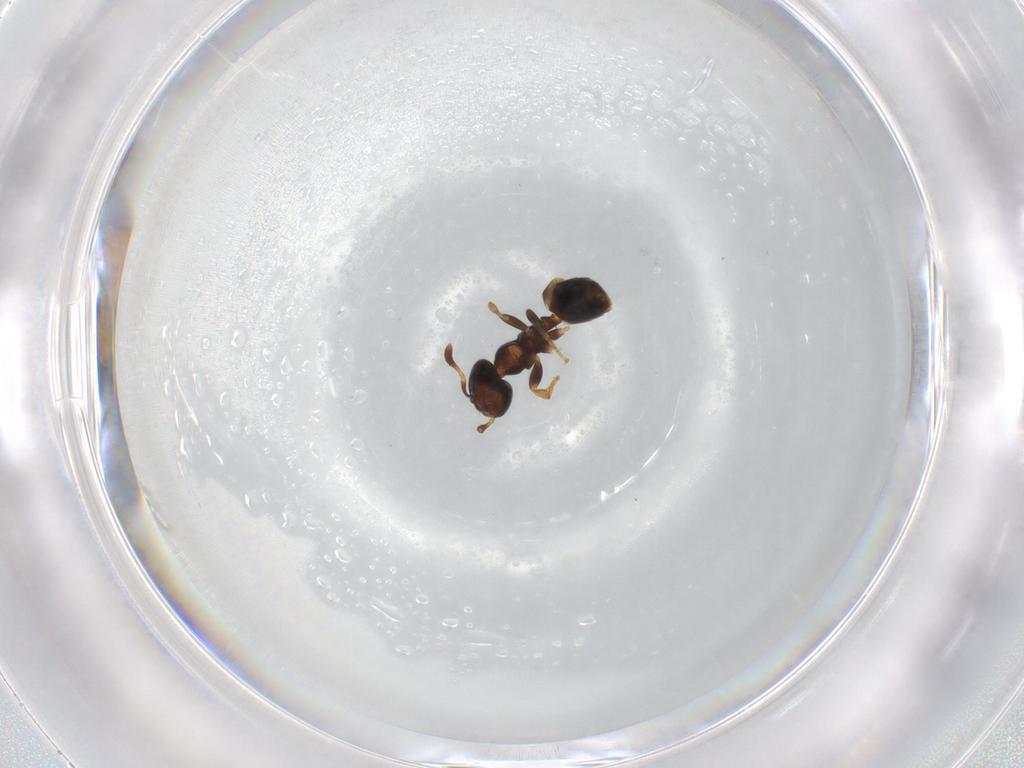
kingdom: Animalia
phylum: Arthropoda
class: Insecta
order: Hymenoptera
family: Formicidae
